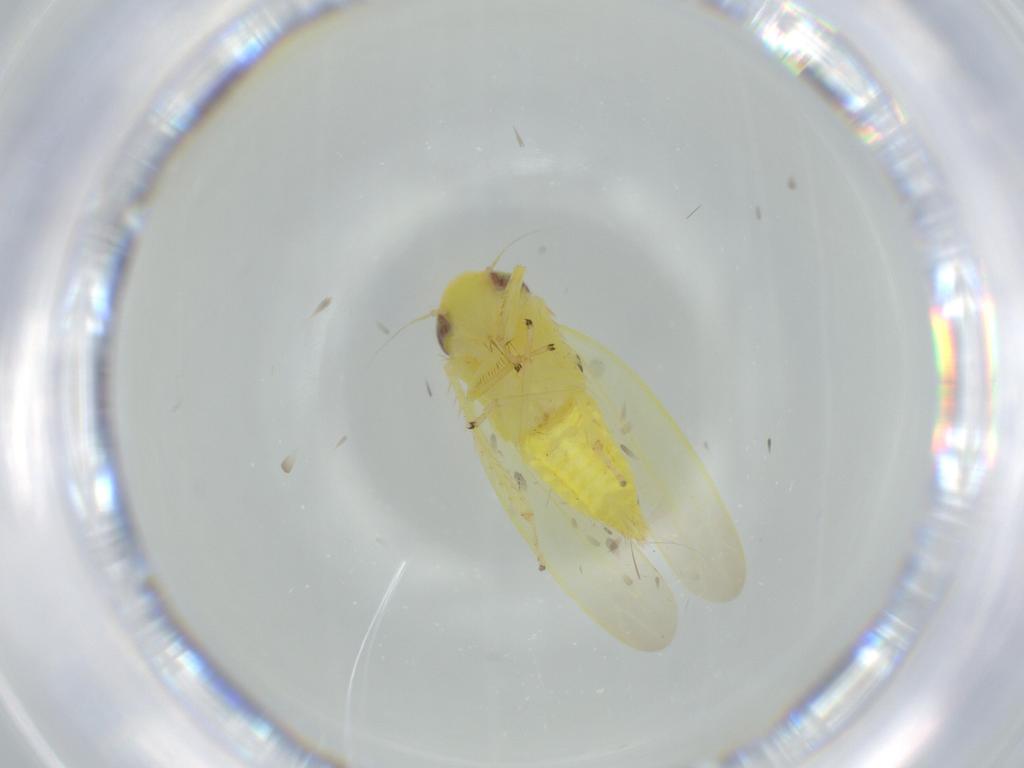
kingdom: Animalia
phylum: Arthropoda
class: Insecta
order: Hemiptera
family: Cicadellidae
